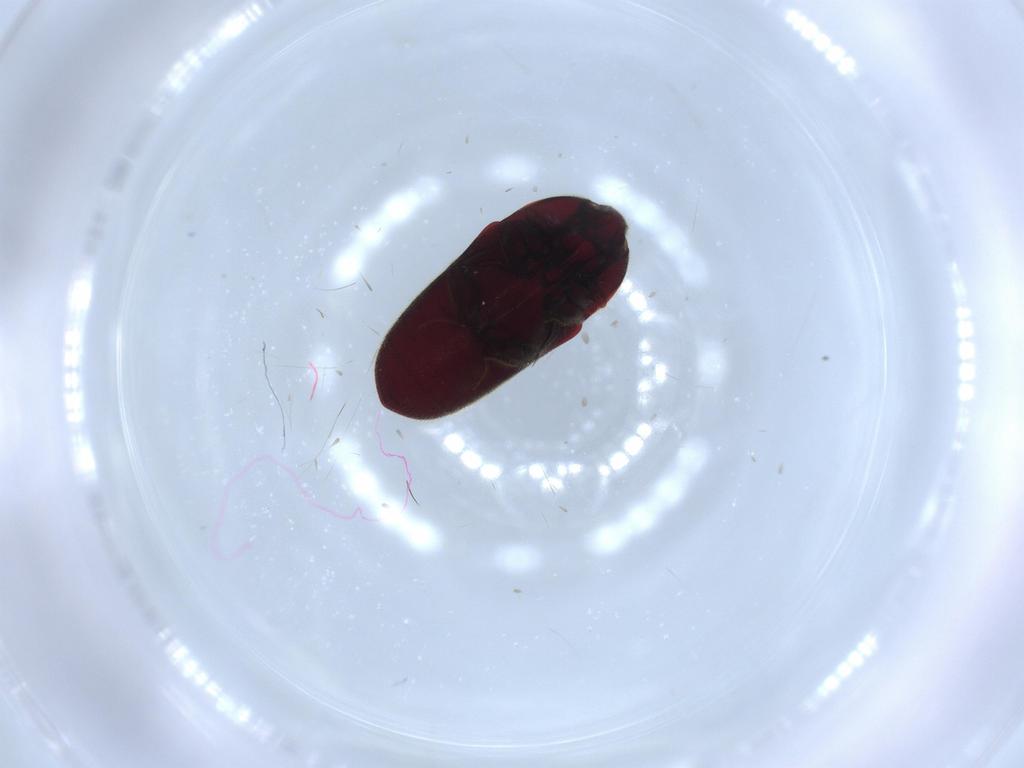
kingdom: Animalia
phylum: Arthropoda
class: Insecta
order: Coleoptera
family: Throscidae
